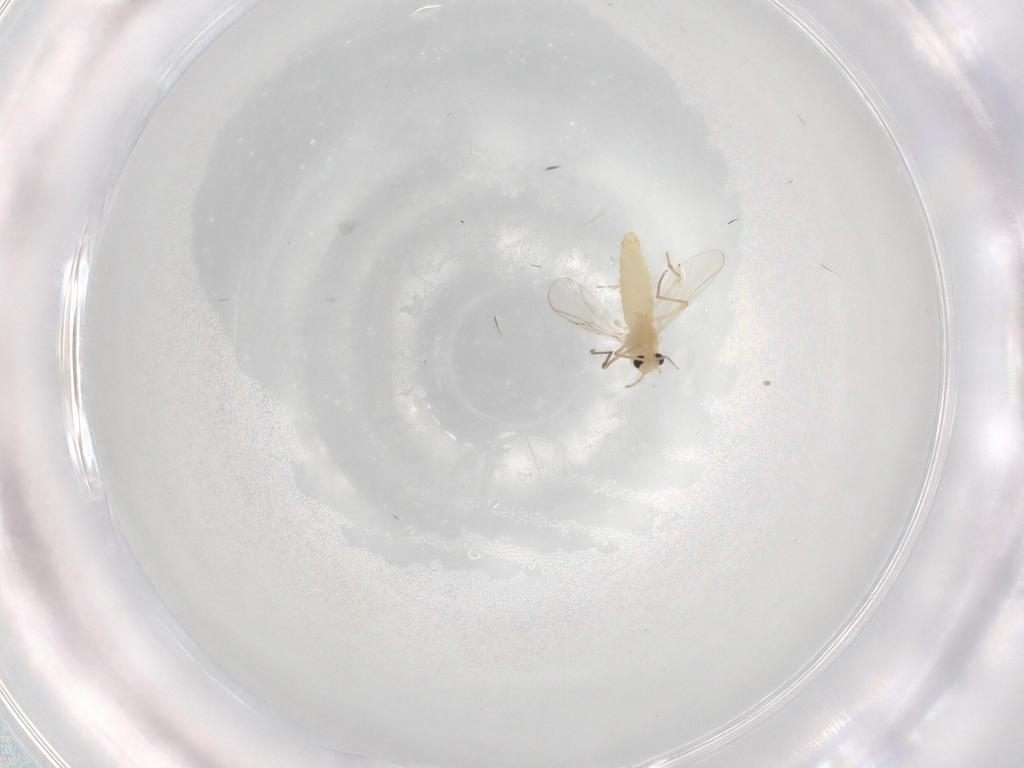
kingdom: Animalia
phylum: Arthropoda
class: Insecta
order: Diptera
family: Chironomidae
